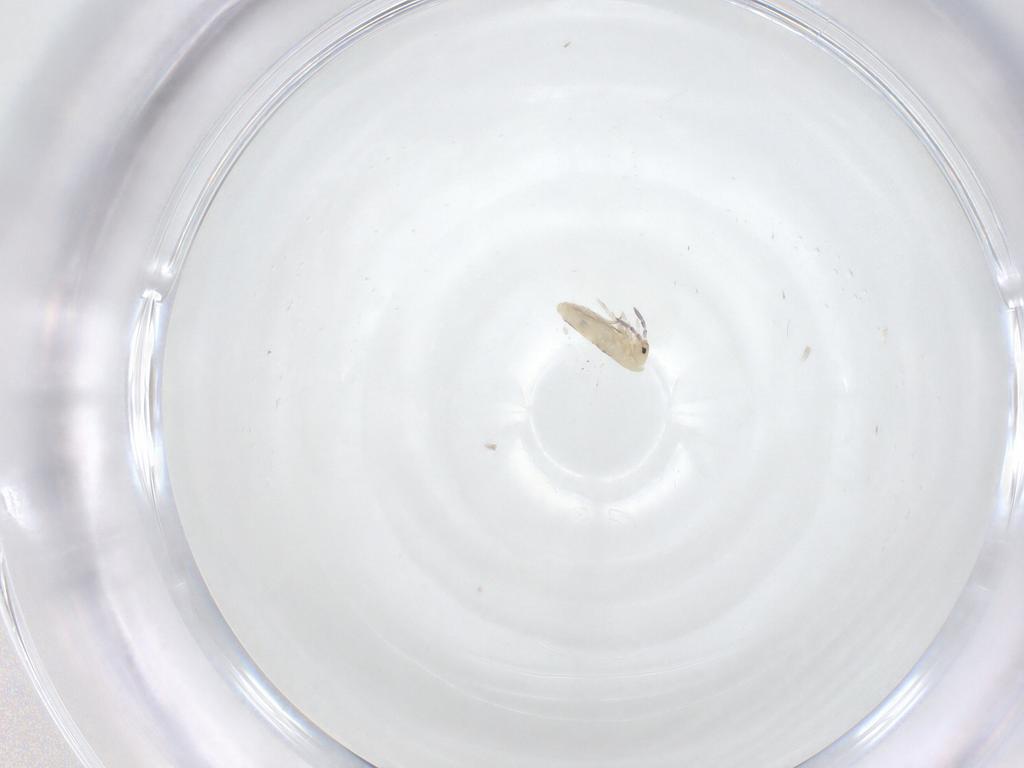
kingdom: Animalia
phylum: Arthropoda
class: Collembola
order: Entomobryomorpha
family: Entomobryidae
